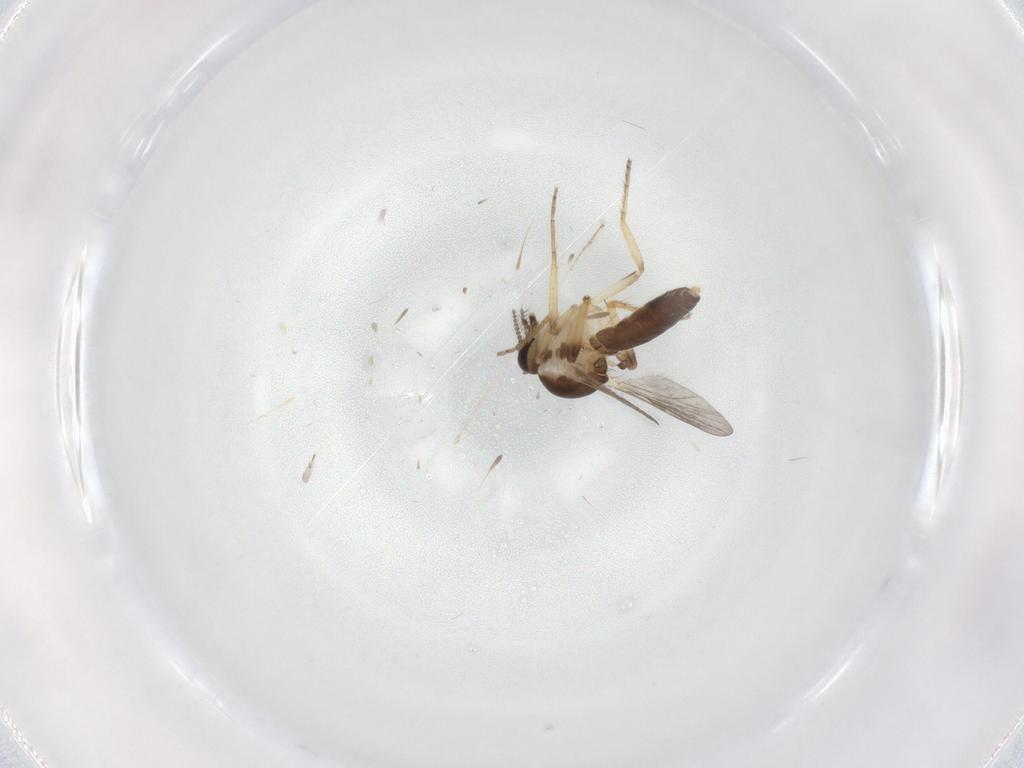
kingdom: Animalia
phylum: Arthropoda
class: Insecta
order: Diptera
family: Ceratopogonidae
